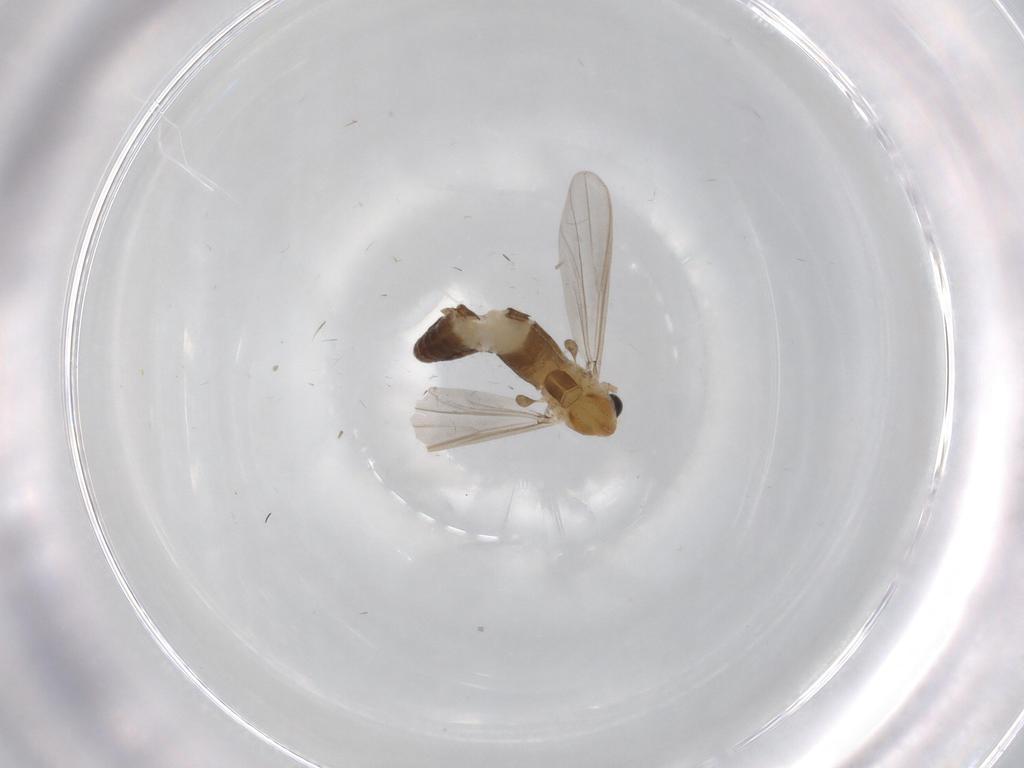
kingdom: Animalia
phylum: Arthropoda
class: Insecta
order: Diptera
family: Chironomidae
